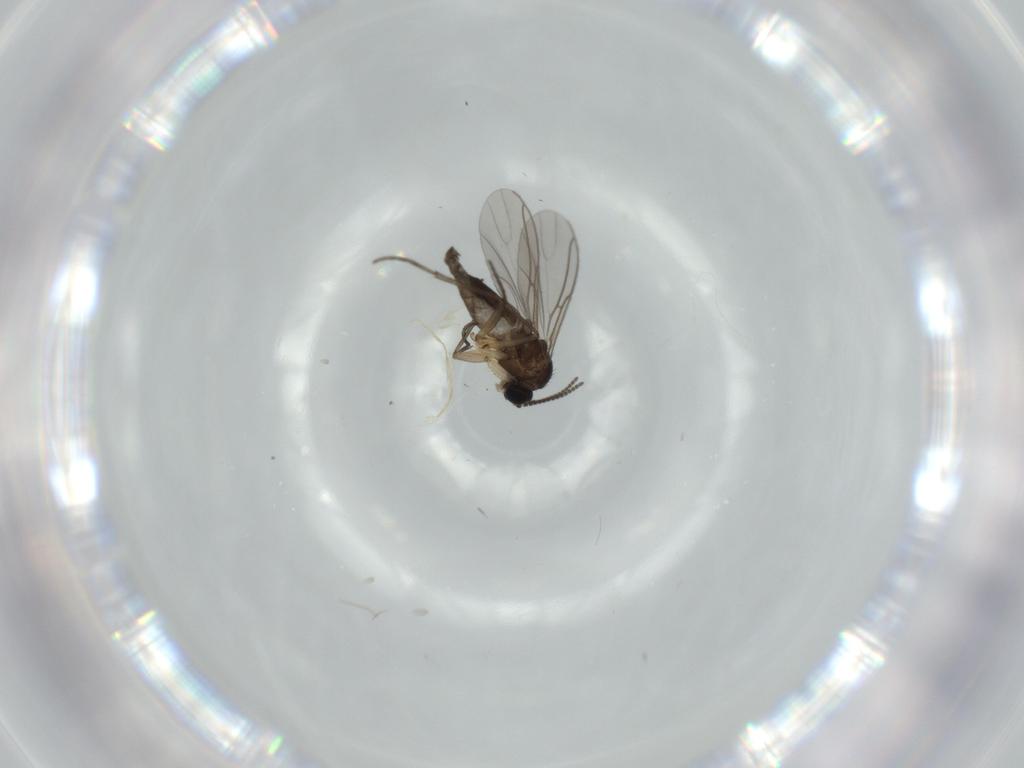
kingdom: Animalia
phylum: Arthropoda
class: Insecta
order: Diptera
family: Sciaridae
